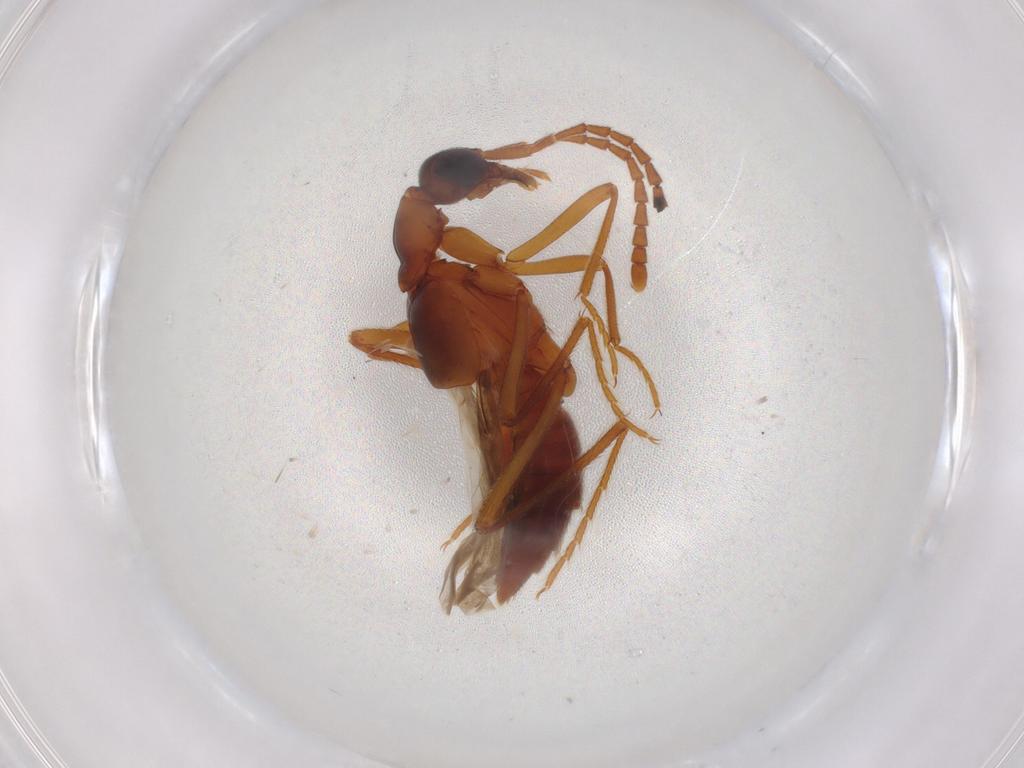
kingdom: Animalia
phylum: Arthropoda
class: Insecta
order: Coleoptera
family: Staphylinidae
